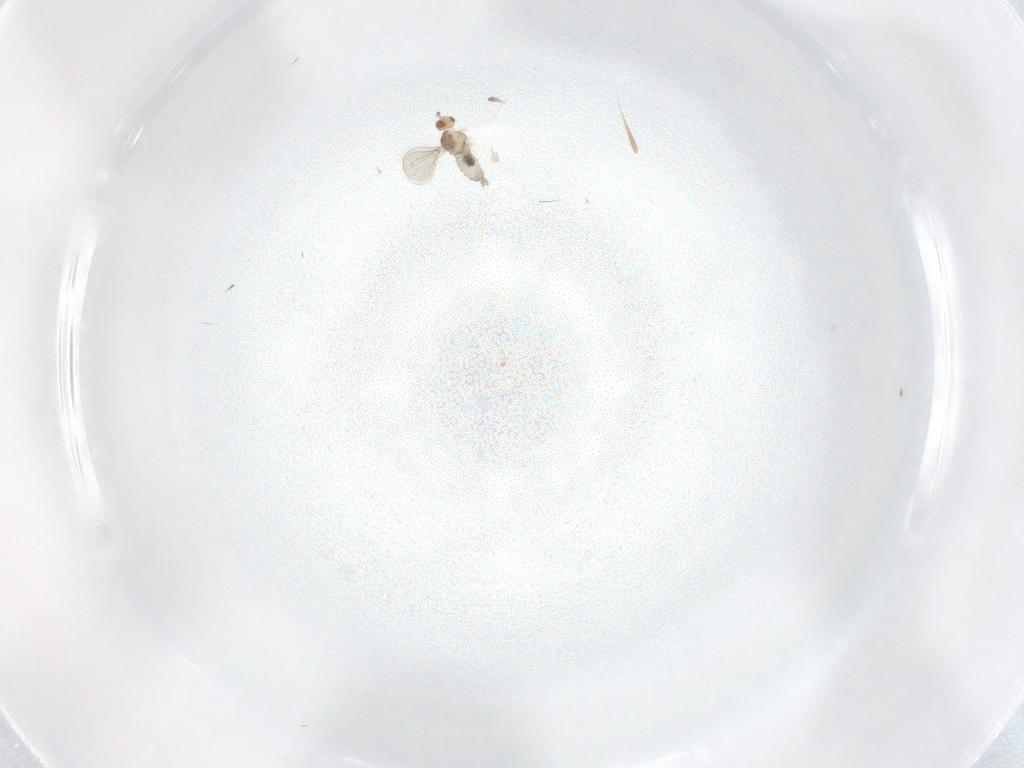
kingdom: Animalia
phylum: Arthropoda
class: Insecta
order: Diptera
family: Cecidomyiidae
